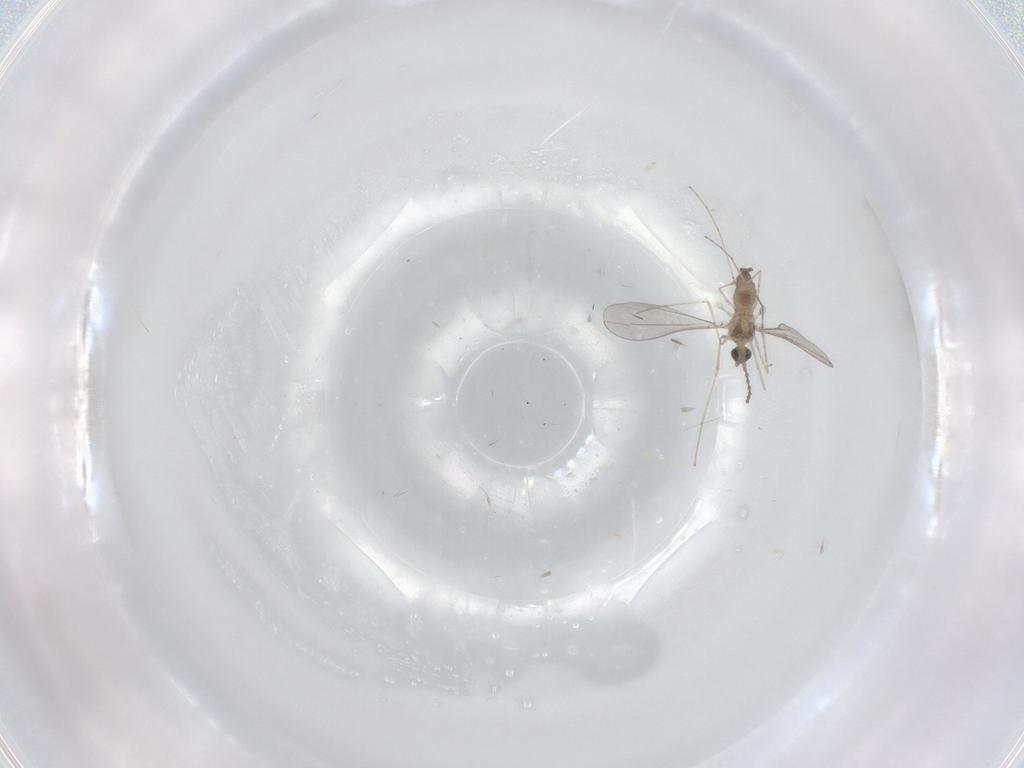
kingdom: Animalia
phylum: Arthropoda
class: Insecta
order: Diptera
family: Cecidomyiidae
